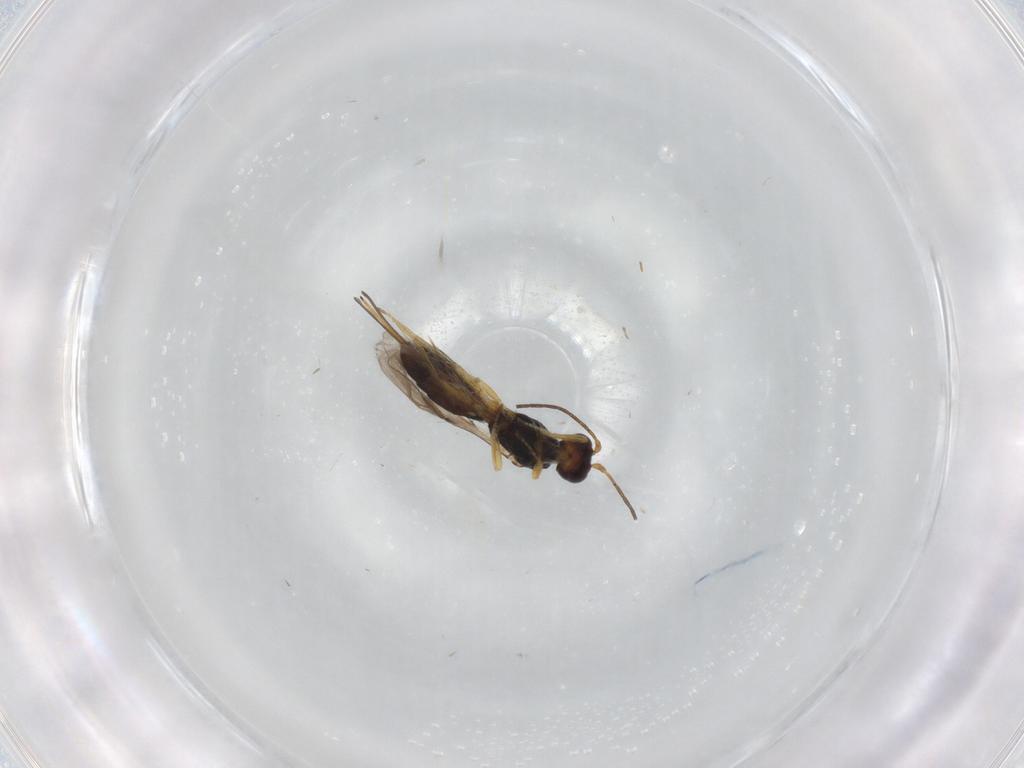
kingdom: Animalia
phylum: Arthropoda
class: Insecta
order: Hymenoptera
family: Braconidae
